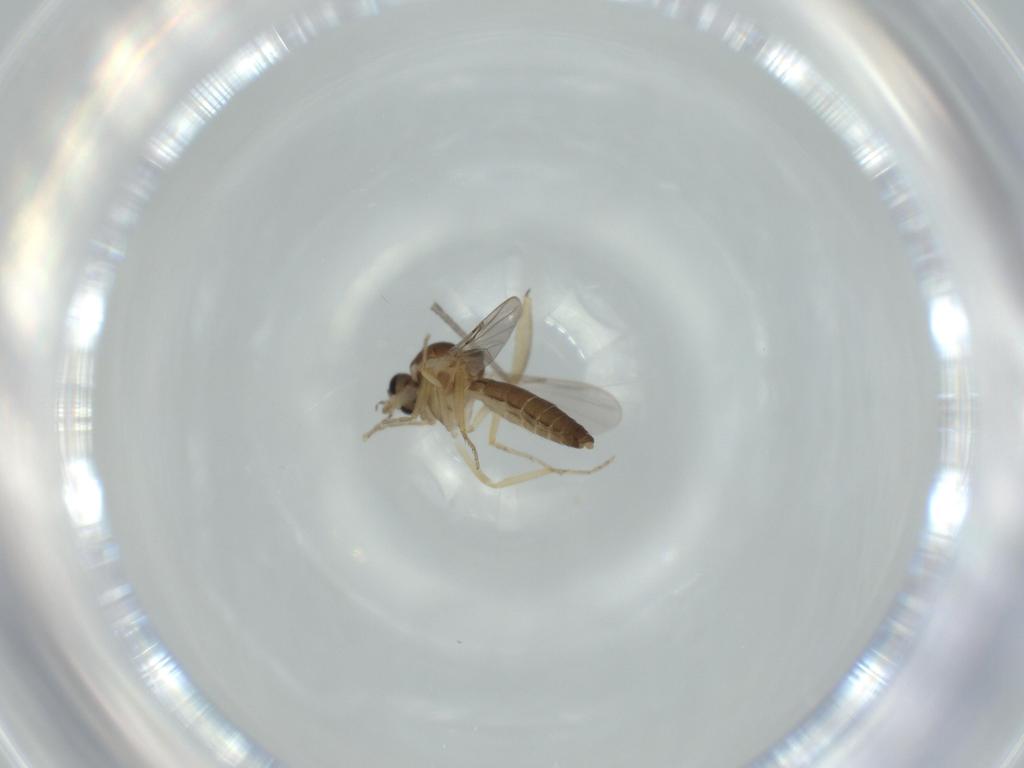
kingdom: Animalia
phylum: Arthropoda
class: Insecta
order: Diptera
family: Ceratopogonidae
